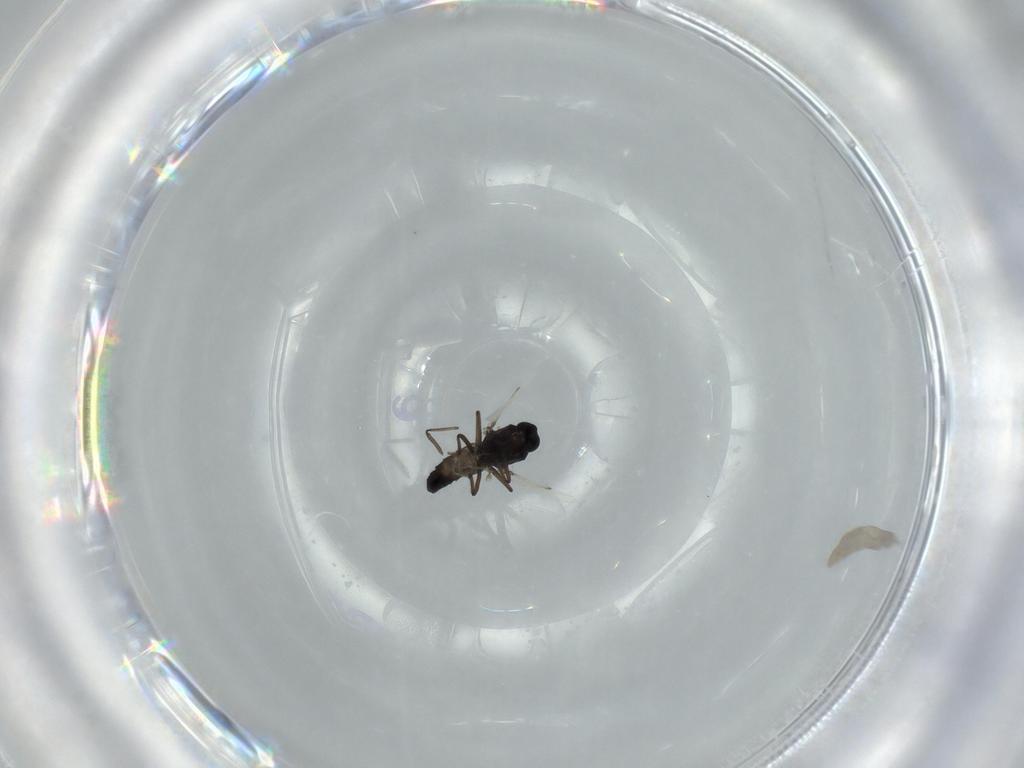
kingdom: Animalia
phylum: Arthropoda
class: Insecta
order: Diptera
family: Ceratopogonidae
